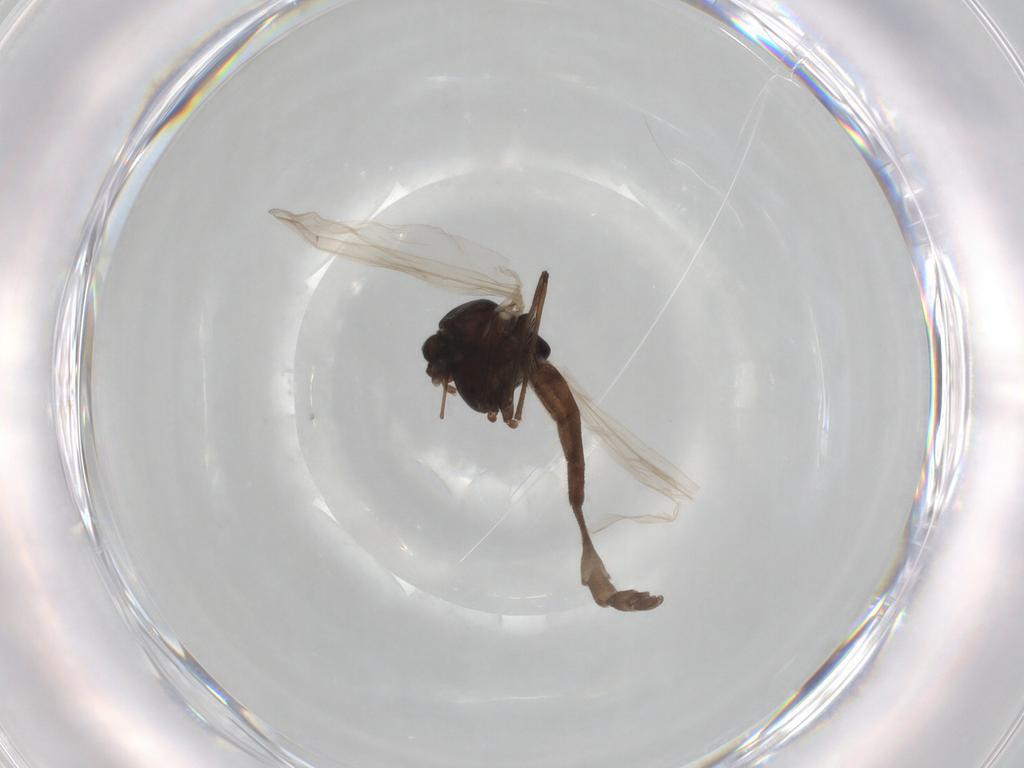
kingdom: Animalia
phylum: Arthropoda
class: Insecta
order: Diptera
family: Chironomidae
